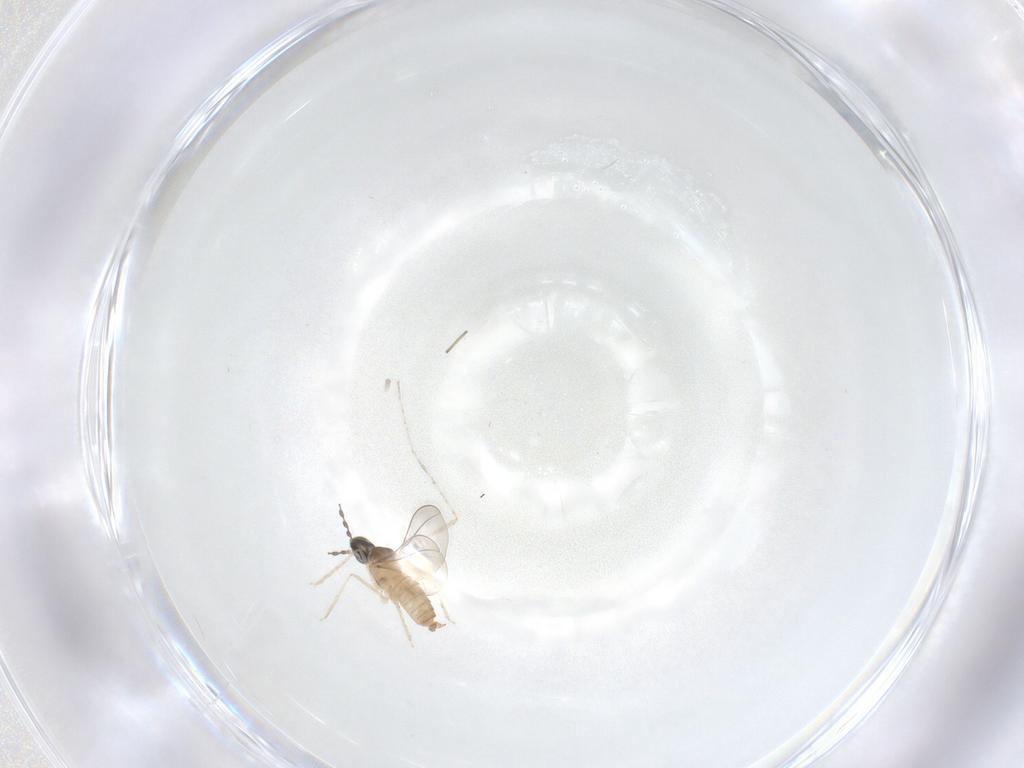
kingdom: Animalia
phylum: Arthropoda
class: Insecta
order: Diptera
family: Cecidomyiidae
